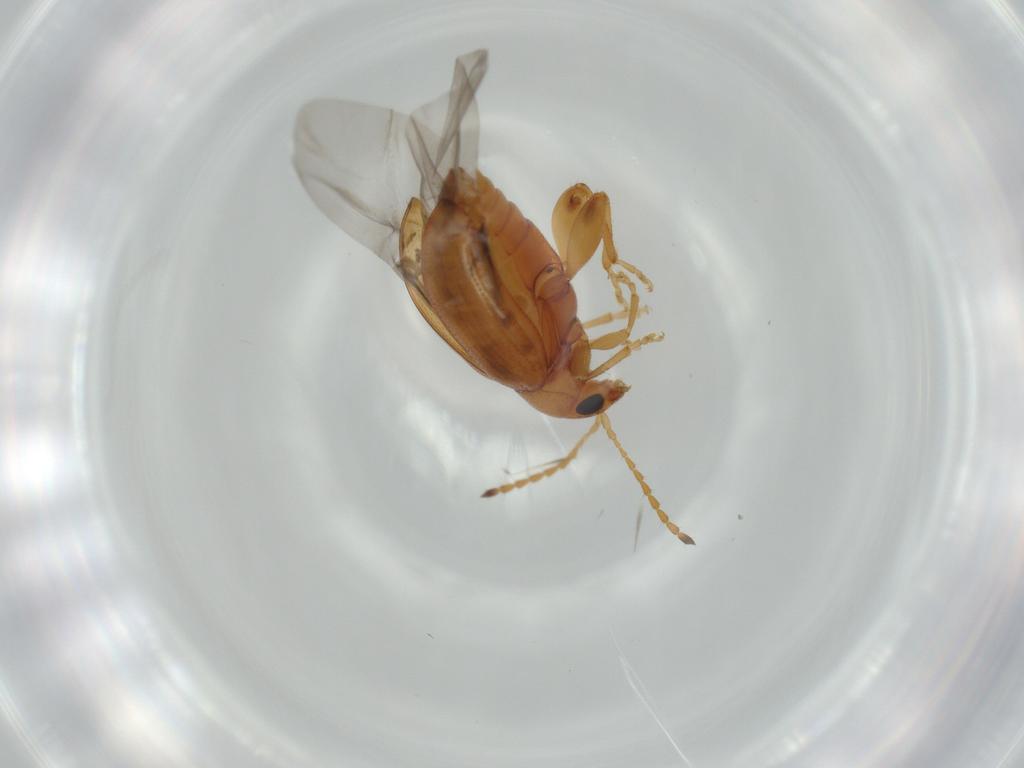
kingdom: Animalia
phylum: Arthropoda
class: Insecta
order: Coleoptera
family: Chrysomelidae
